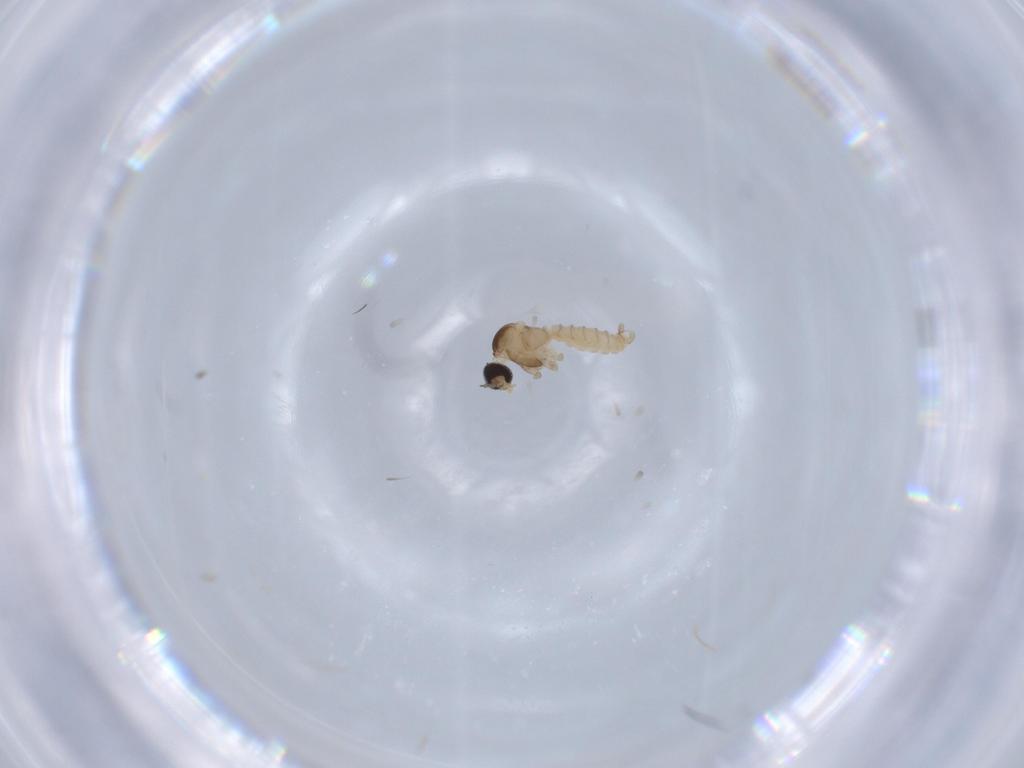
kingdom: Animalia
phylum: Arthropoda
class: Insecta
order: Diptera
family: Cecidomyiidae
